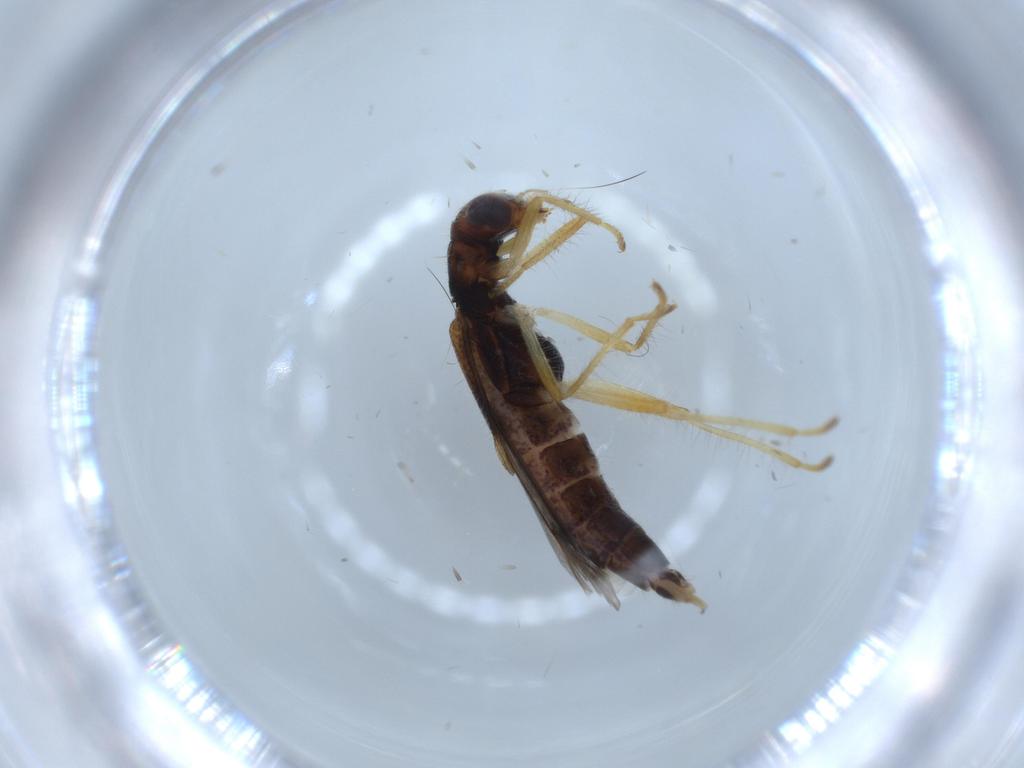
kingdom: Animalia
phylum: Arthropoda
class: Insecta
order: Coleoptera
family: Cleridae
